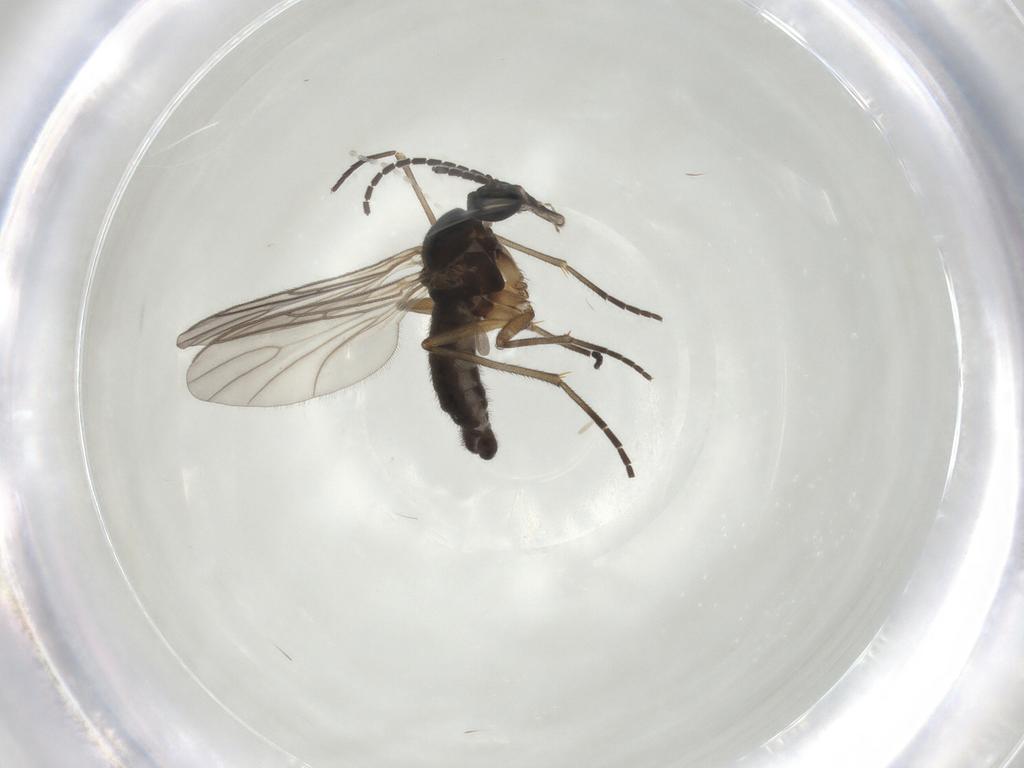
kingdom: Animalia
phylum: Arthropoda
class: Insecta
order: Diptera
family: Sciaridae
